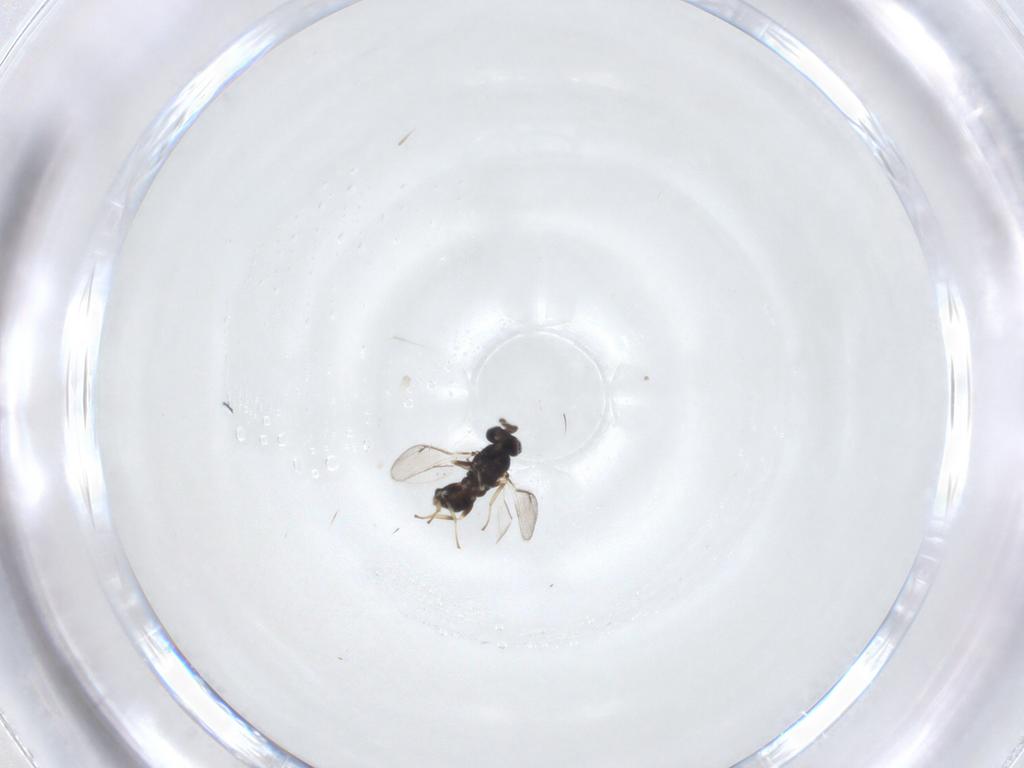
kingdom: Animalia
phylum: Arthropoda
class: Insecta
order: Hymenoptera
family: Eulophidae
